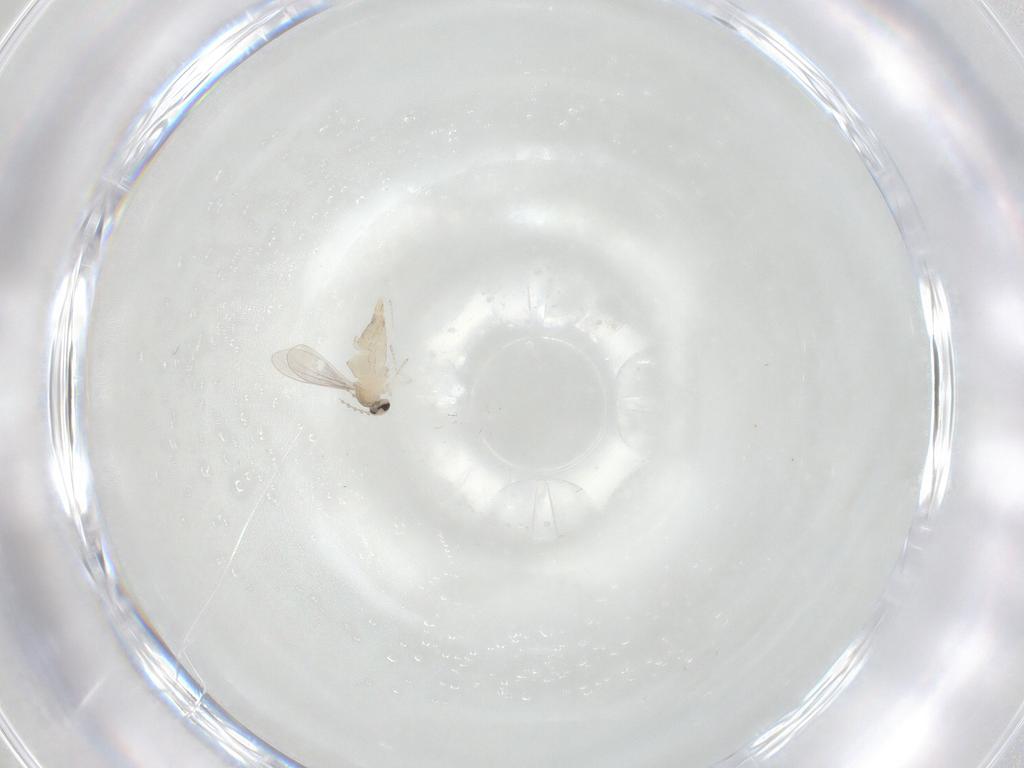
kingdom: Animalia
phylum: Arthropoda
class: Insecta
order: Diptera
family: Cecidomyiidae
